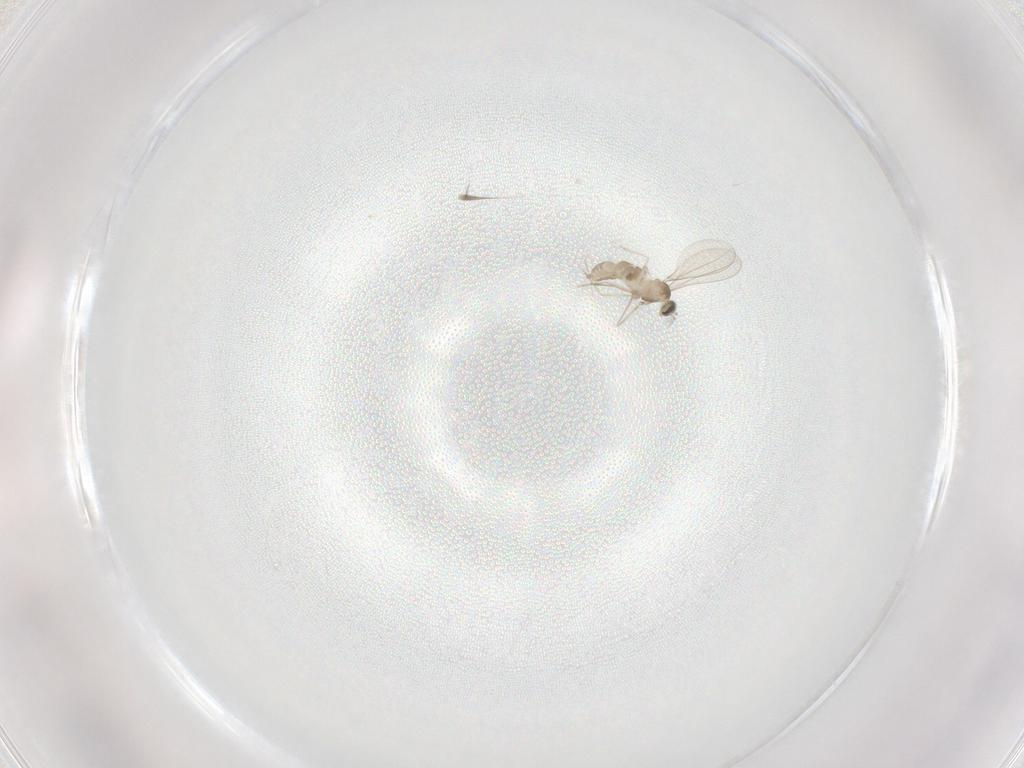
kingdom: Animalia
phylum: Arthropoda
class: Insecta
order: Diptera
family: Cecidomyiidae
